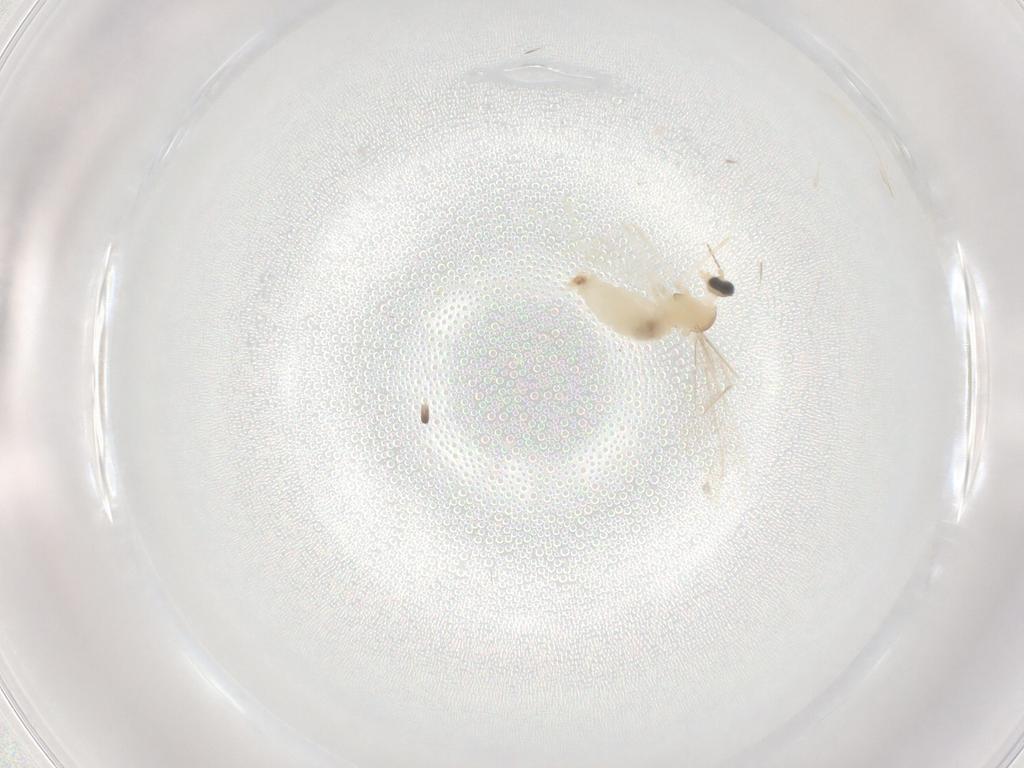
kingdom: Animalia
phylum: Arthropoda
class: Insecta
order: Diptera
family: Cecidomyiidae
